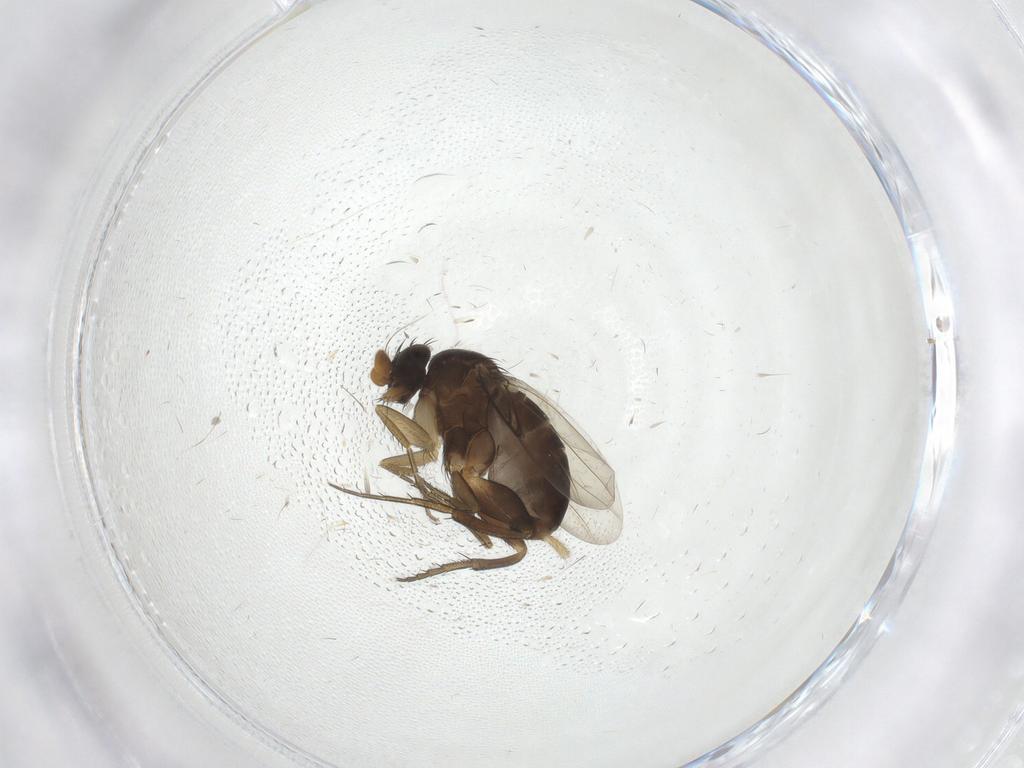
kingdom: Animalia
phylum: Arthropoda
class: Insecta
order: Diptera
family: Phoridae
